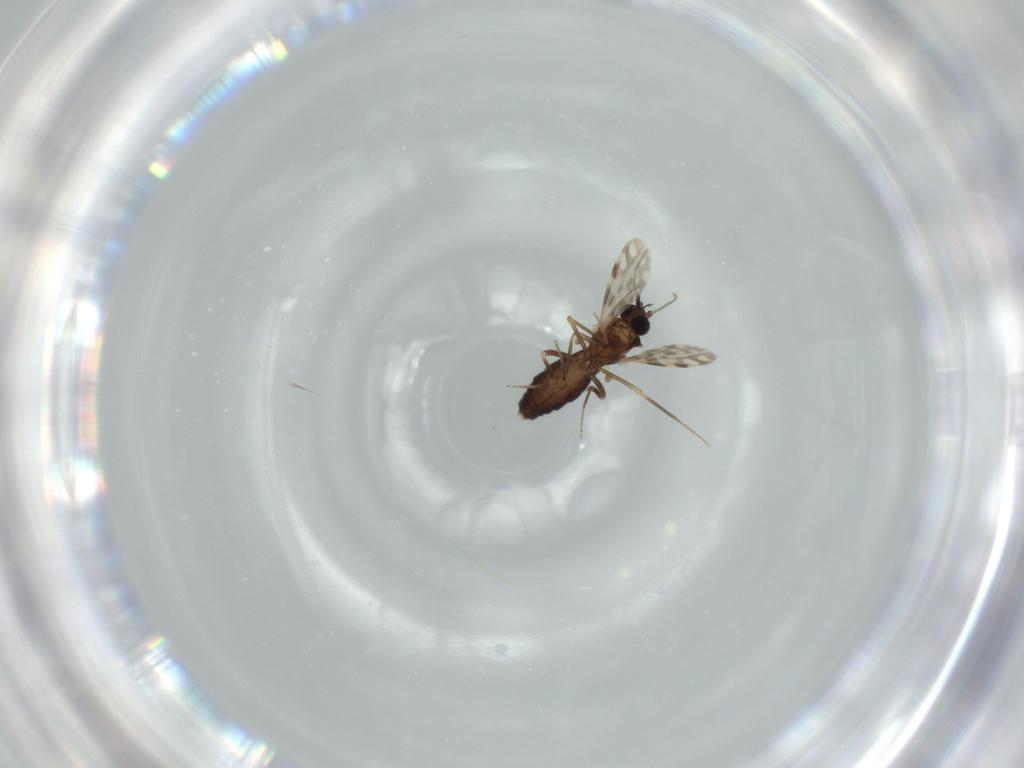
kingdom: Animalia
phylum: Arthropoda
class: Insecta
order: Diptera
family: Ceratopogonidae
